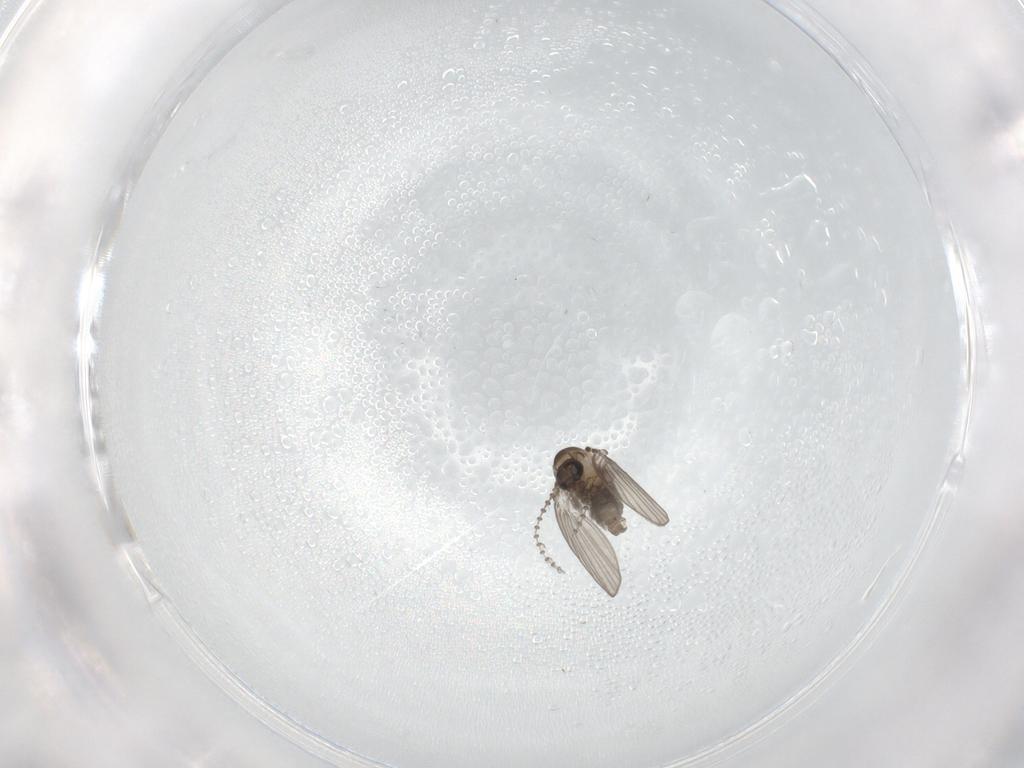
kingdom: Animalia
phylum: Arthropoda
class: Insecta
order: Diptera
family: Psychodidae
